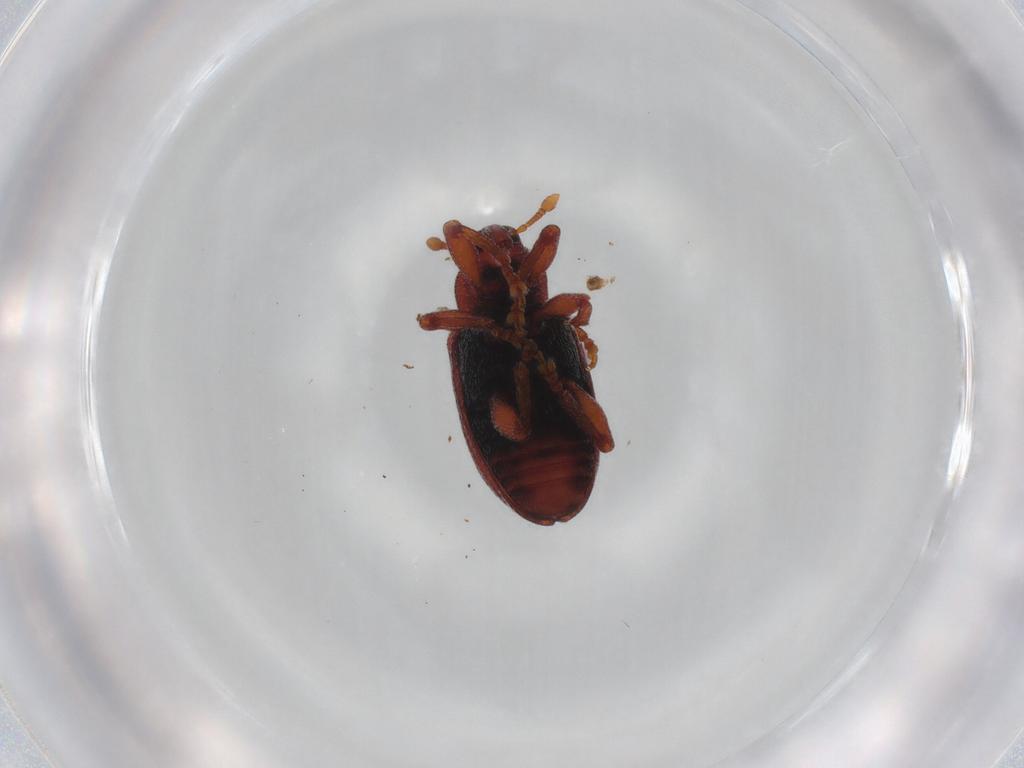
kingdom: Animalia
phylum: Arthropoda
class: Insecta
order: Coleoptera
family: Curculionidae
